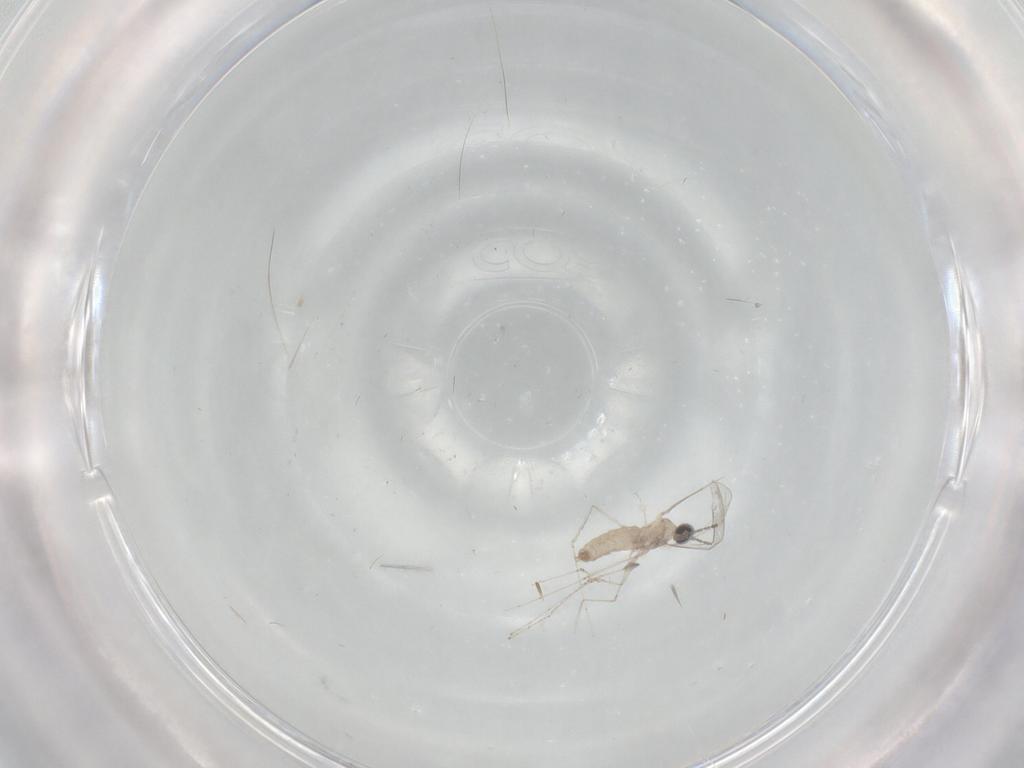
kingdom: Animalia
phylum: Arthropoda
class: Insecta
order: Diptera
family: Cecidomyiidae
